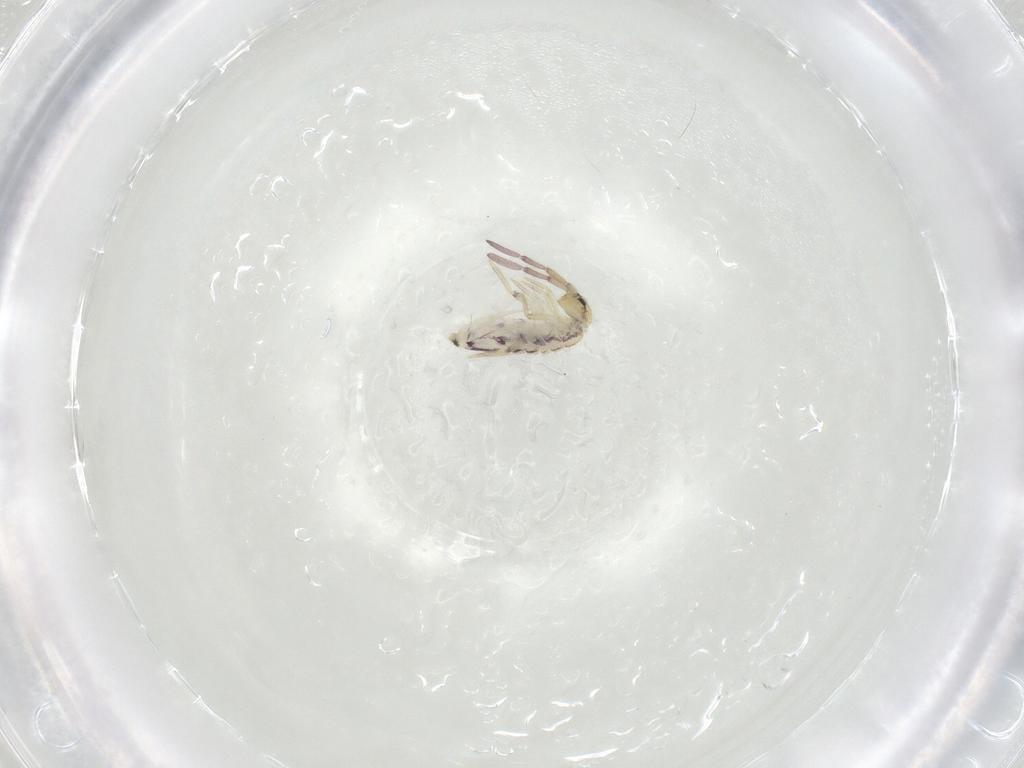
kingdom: Animalia
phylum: Arthropoda
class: Collembola
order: Entomobryomorpha
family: Entomobryidae
